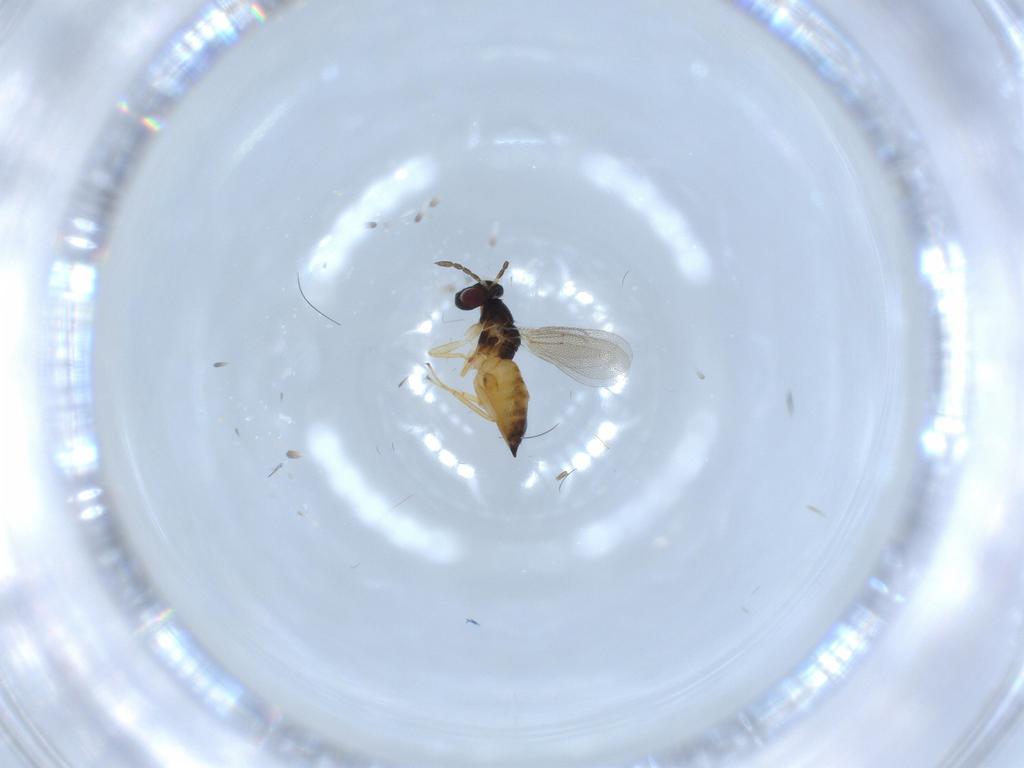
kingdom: Animalia
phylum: Arthropoda
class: Insecta
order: Hymenoptera
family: Eulophidae
